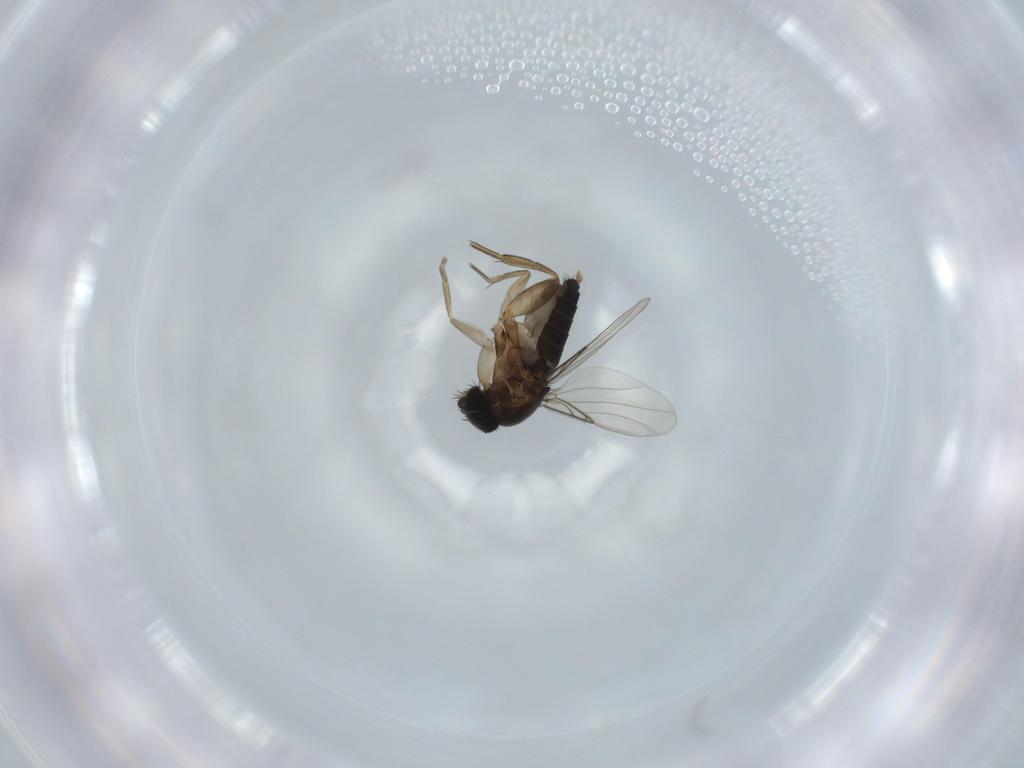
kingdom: Animalia
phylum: Arthropoda
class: Insecta
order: Diptera
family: Phoridae
